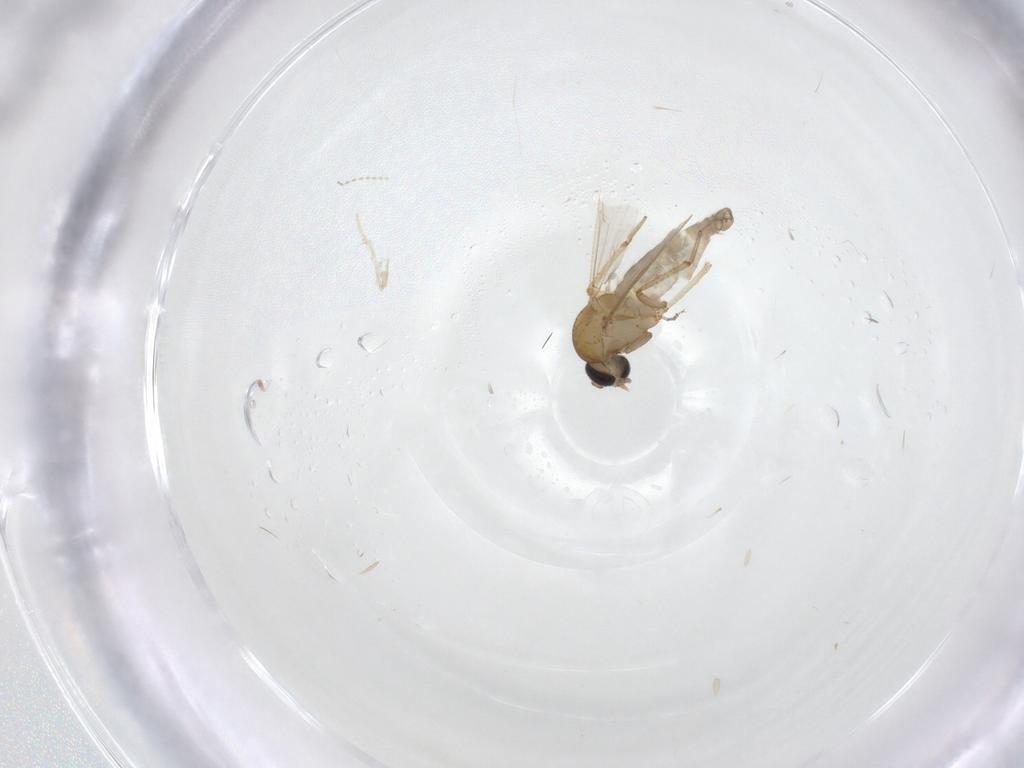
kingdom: Animalia
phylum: Arthropoda
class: Insecta
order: Diptera
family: Ceratopogonidae
